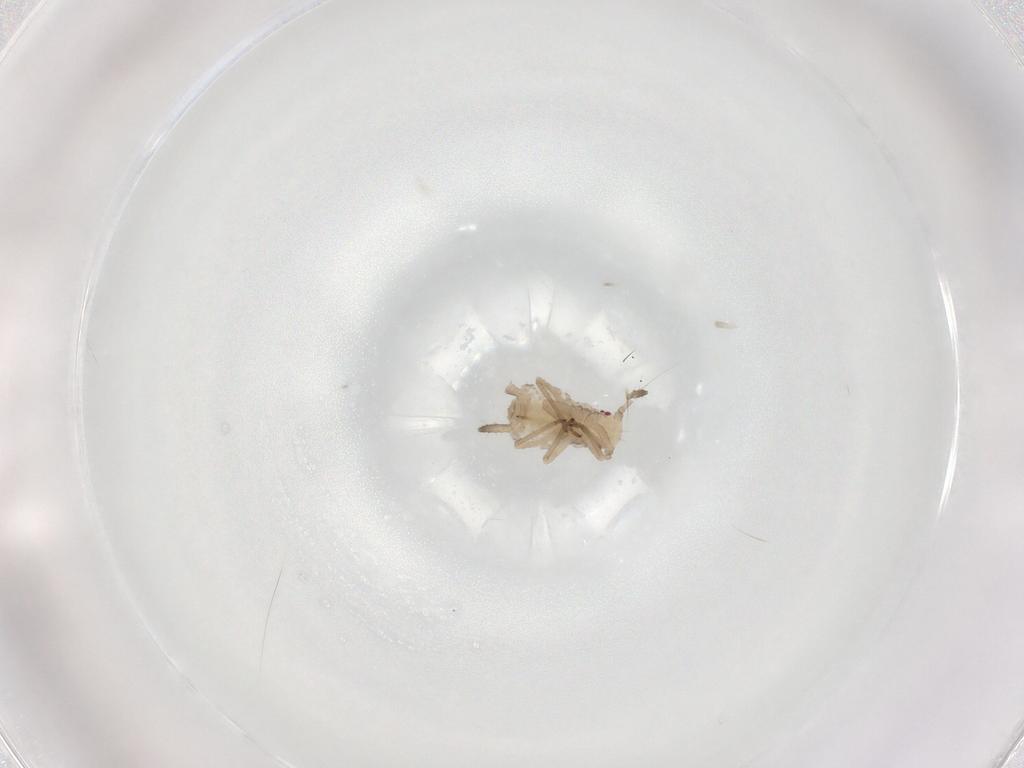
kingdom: Animalia
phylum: Arthropoda
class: Insecta
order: Hemiptera
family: Aphididae
